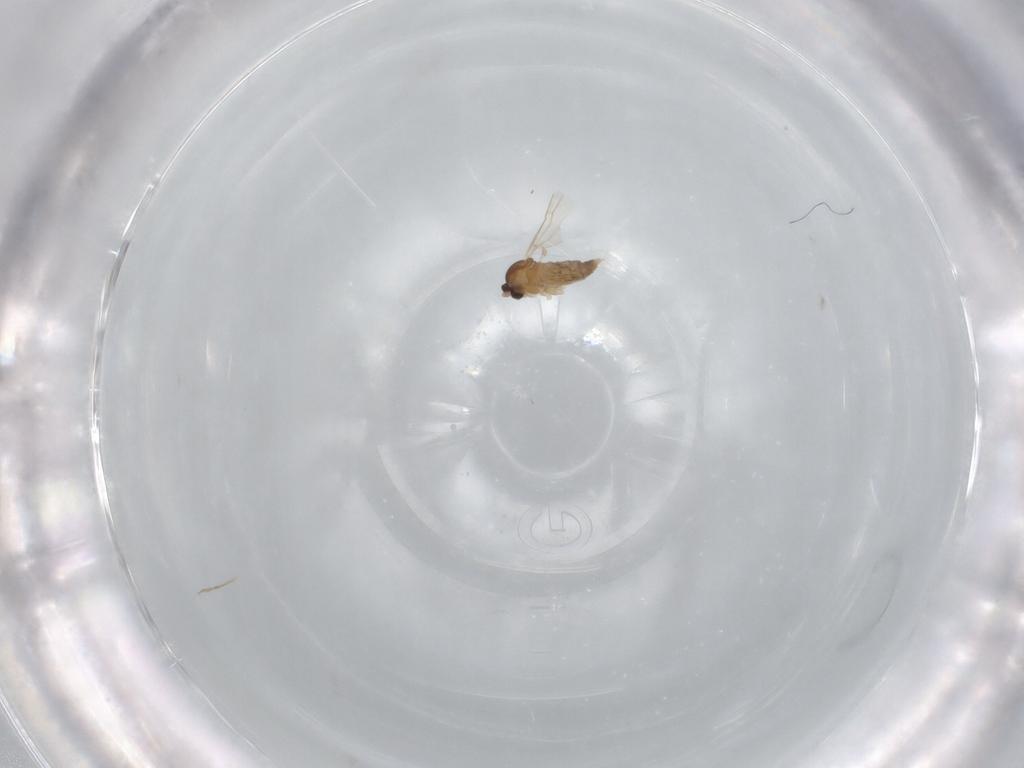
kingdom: Animalia
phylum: Arthropoda
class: Insecta
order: Diptera
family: Cecidomyiidae
